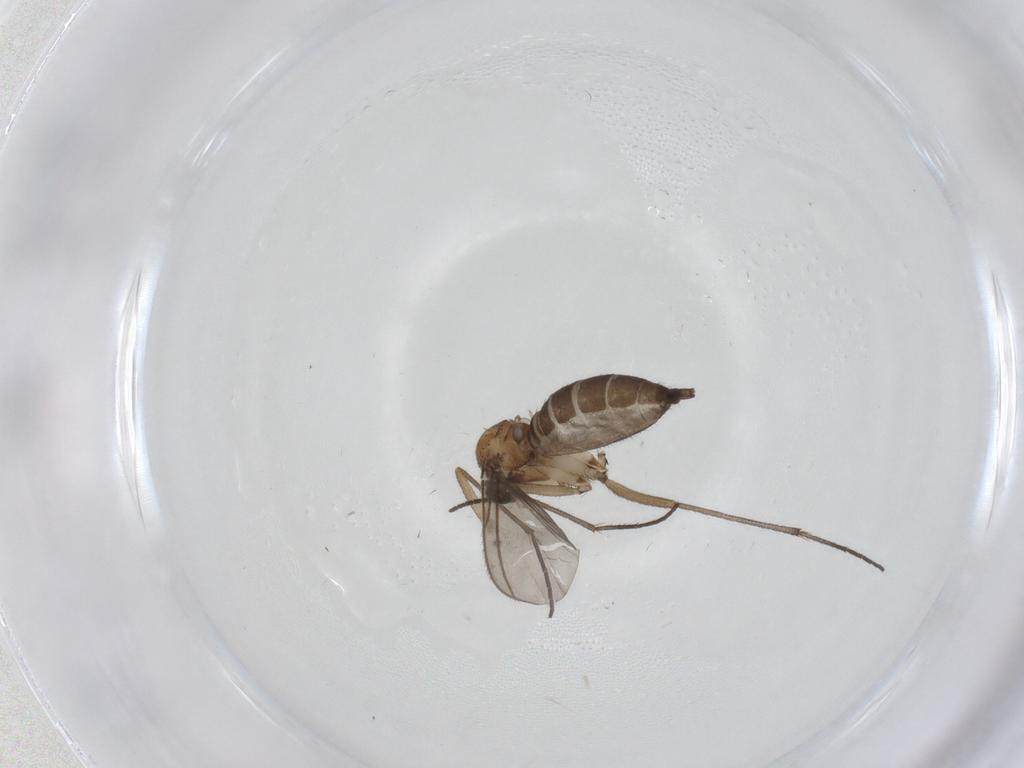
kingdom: Animalia
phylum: Arthropoda
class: Insecta
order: Diptera
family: Sciaridae
